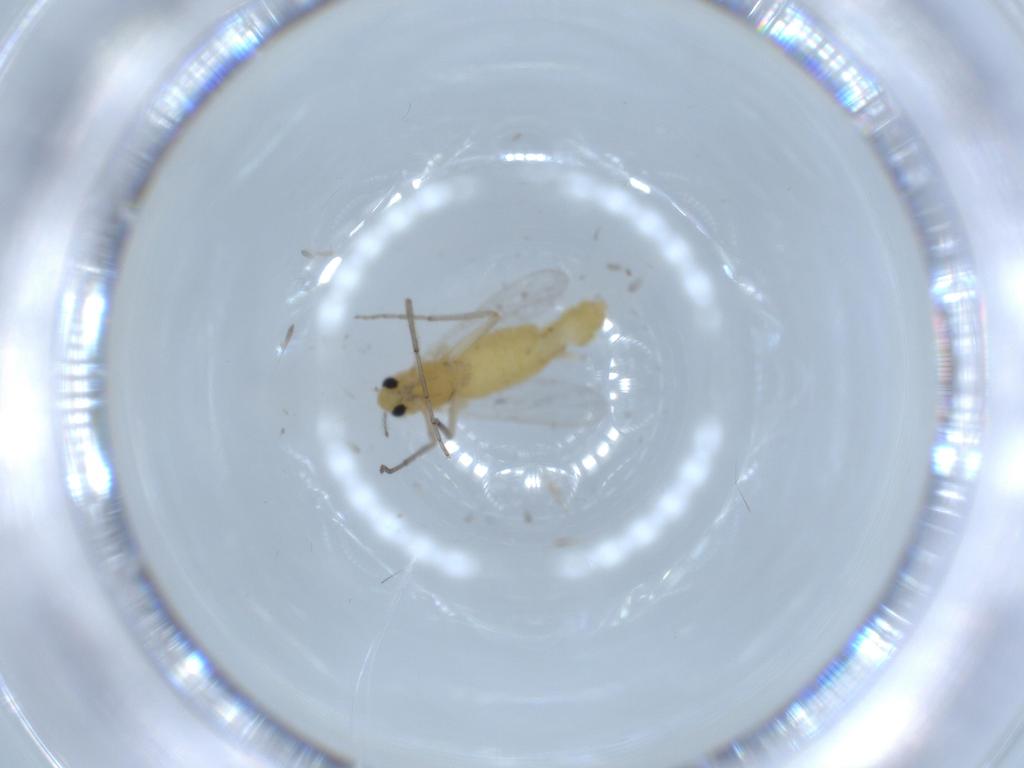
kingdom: Animalia
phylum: Arthropoda
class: Insecta
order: Diptera
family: Chironomidae
